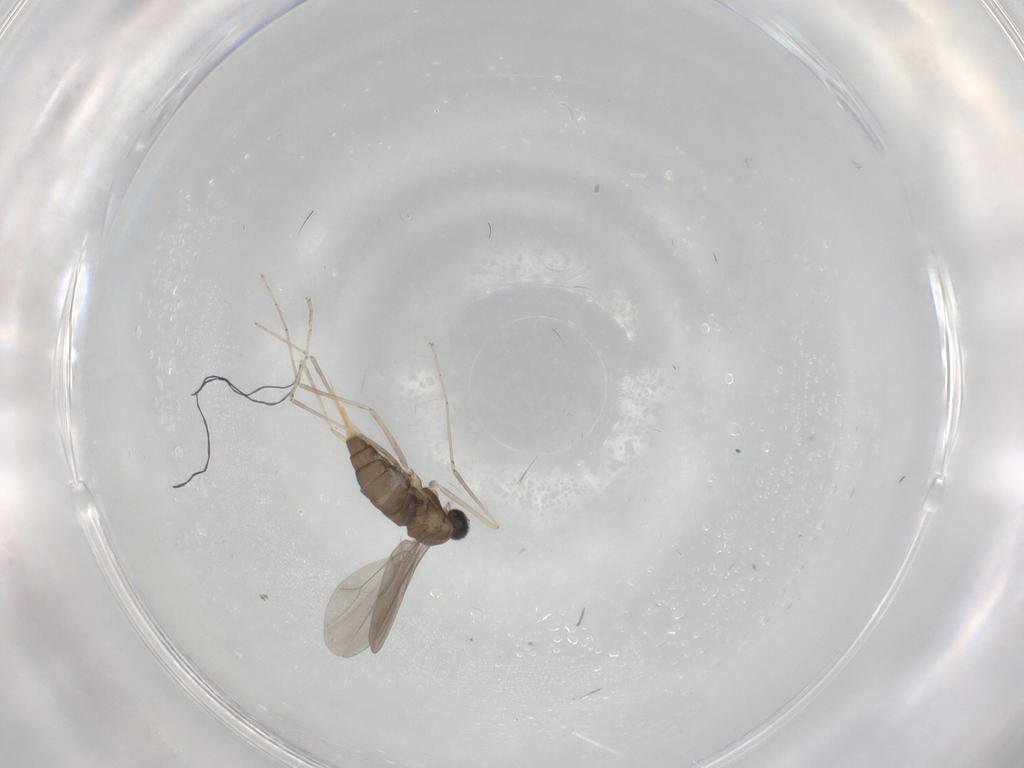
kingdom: Animalia
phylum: Arthropoda
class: Insecta
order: Diptera
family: Cecidomyiidae
